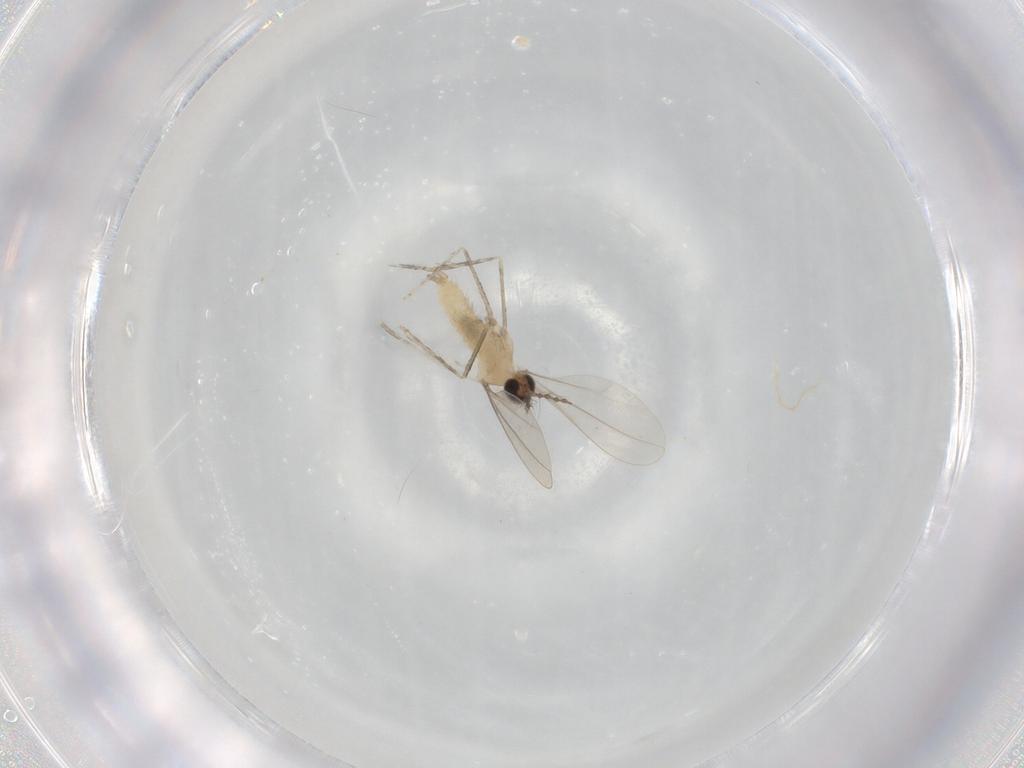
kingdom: Animalia
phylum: Arthropoda
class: Insecta
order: Diptera
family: Cecidomyiidae
